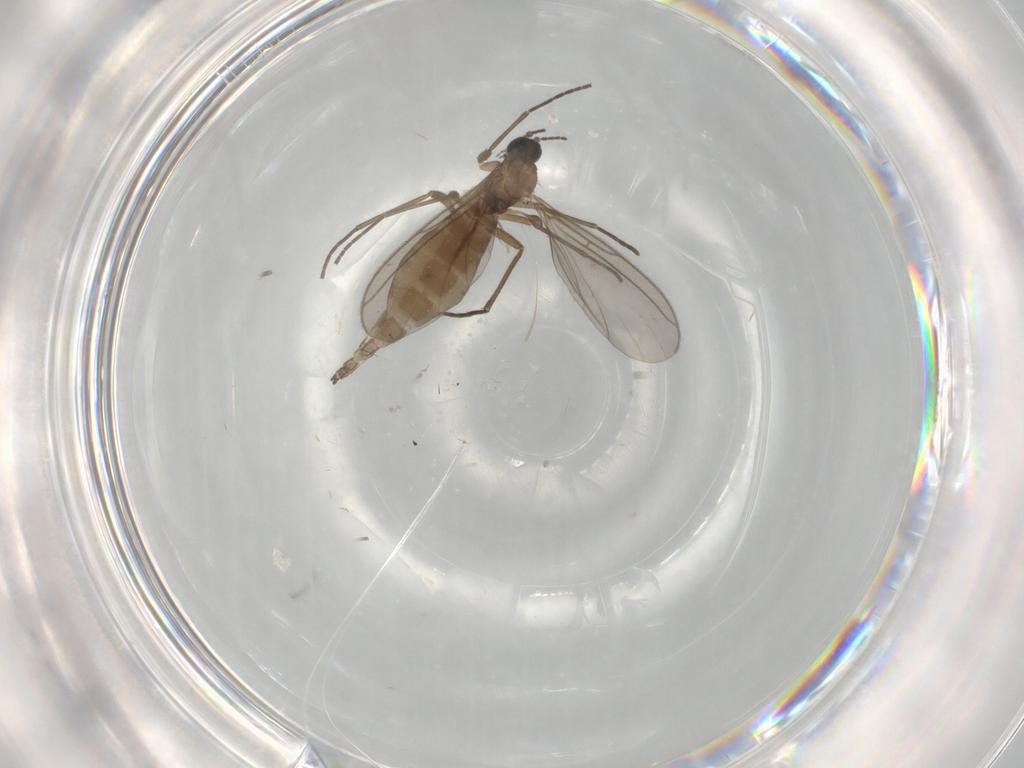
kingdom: Animalia
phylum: Arthropoda
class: Insecta
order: Diptera
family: Sciaridae
